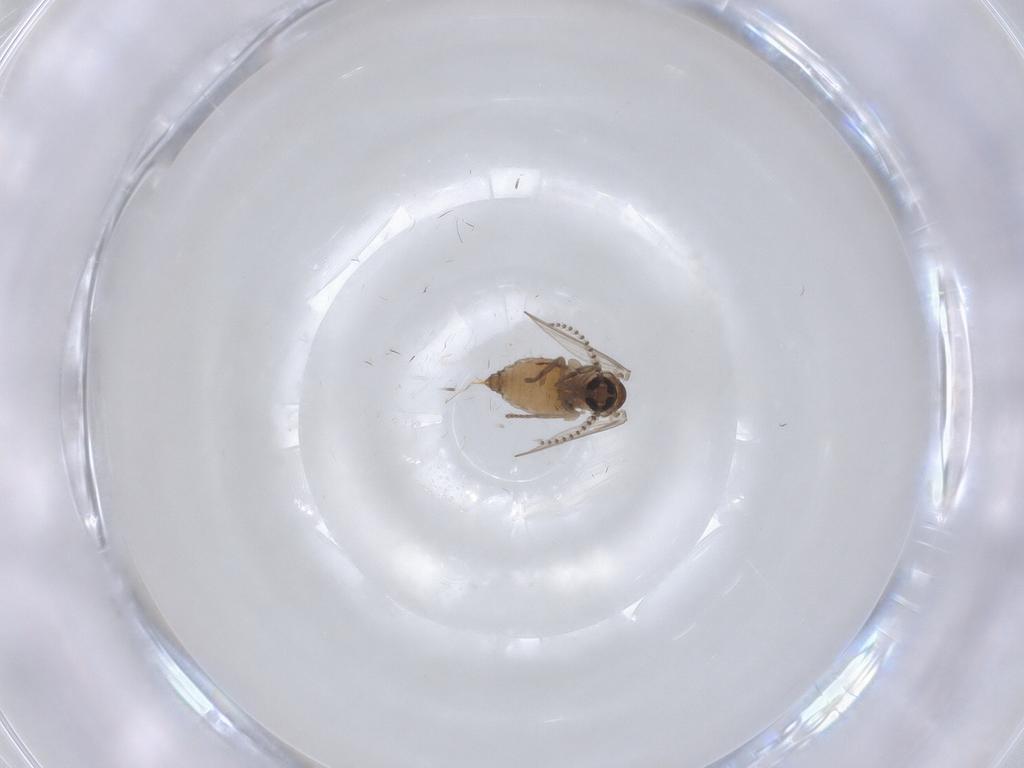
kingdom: Animalia
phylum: Arthropoda
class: Insecta
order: Diptera
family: Psychodidae
